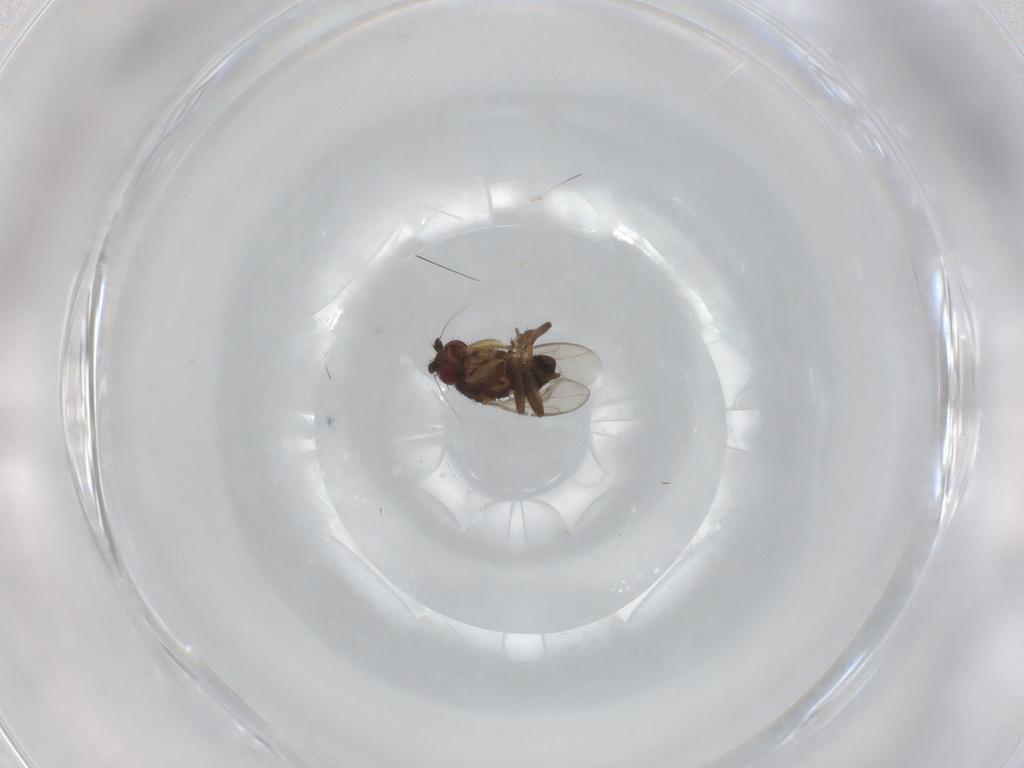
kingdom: Animalia
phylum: Arthropoda
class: Insecta
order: Diptera
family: Sphaeroceridae
